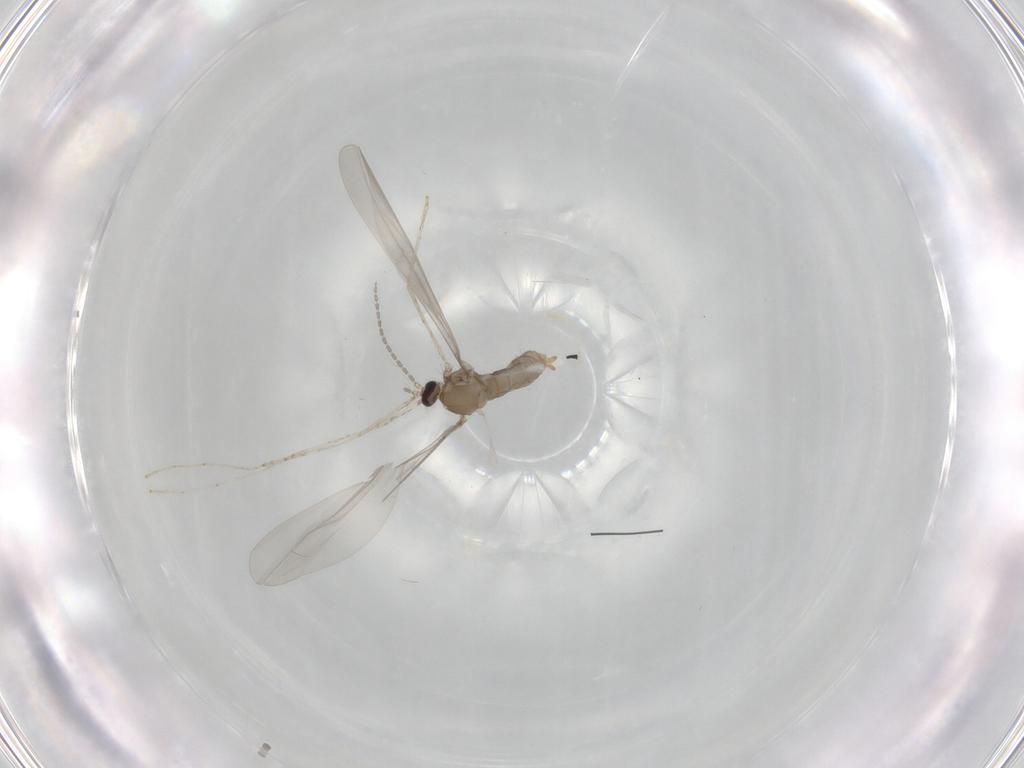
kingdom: Animalia
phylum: Arthropoda
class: Insecta
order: Diptera
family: Cecidomyiidae
